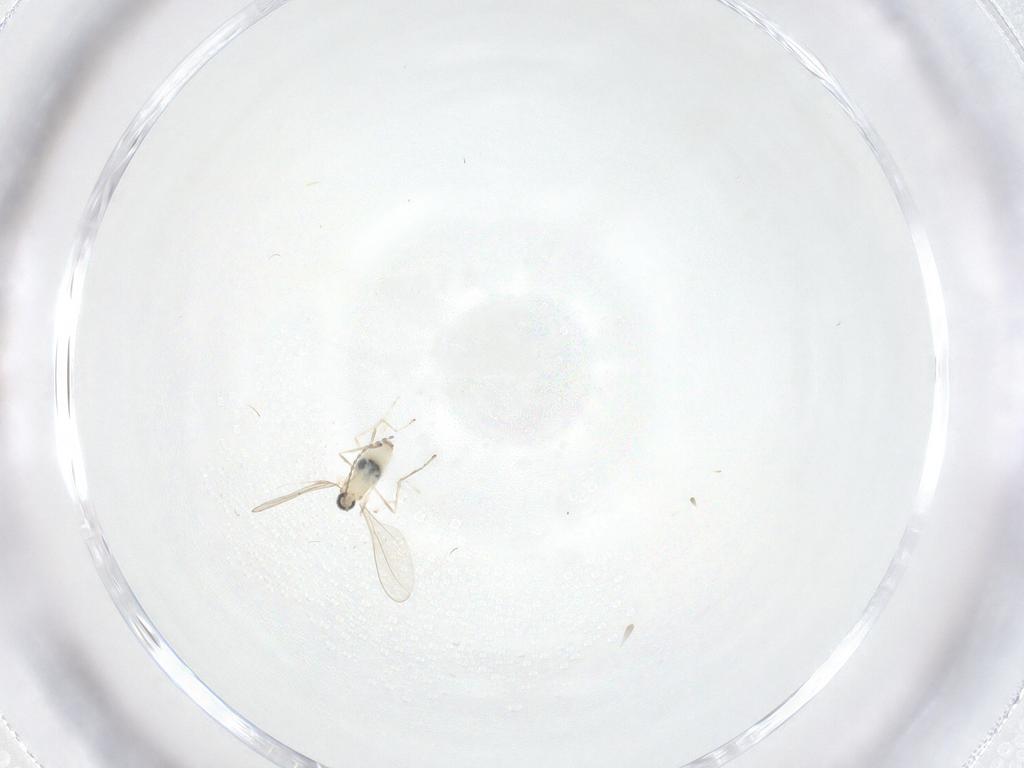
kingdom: Animalia
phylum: Arthropoda
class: Insecta
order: Diptera
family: Cecidomyiidae
